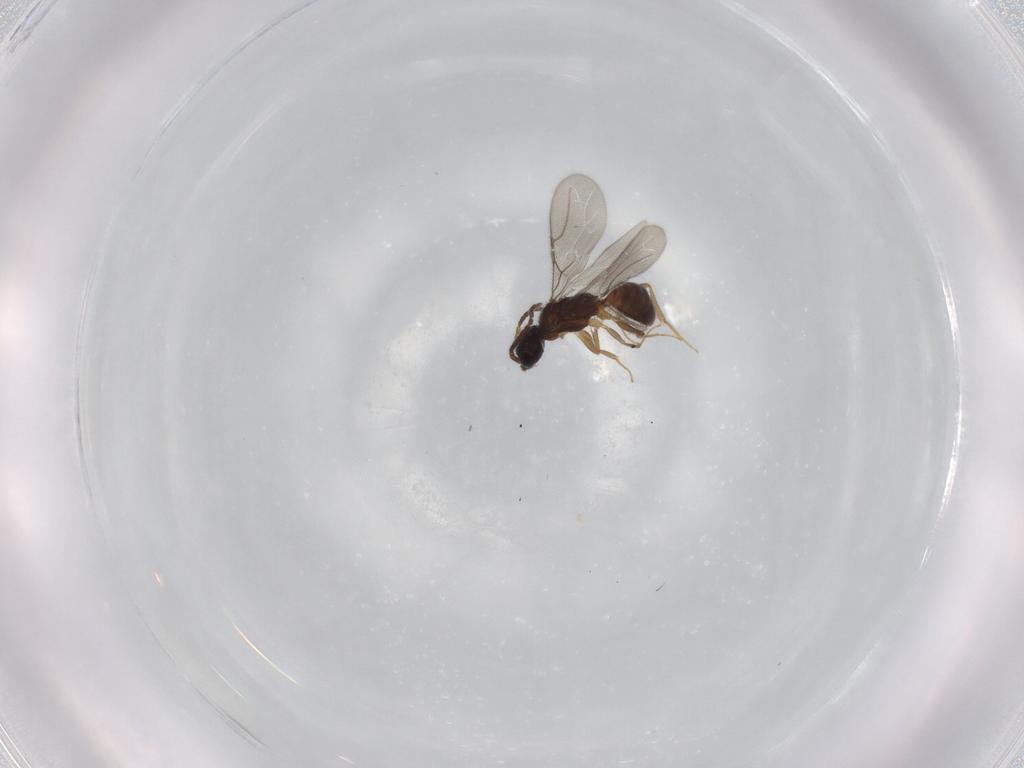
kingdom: Animalia
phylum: Arthropoda
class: Insecta
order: Hymenoptera
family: Bethylidae
